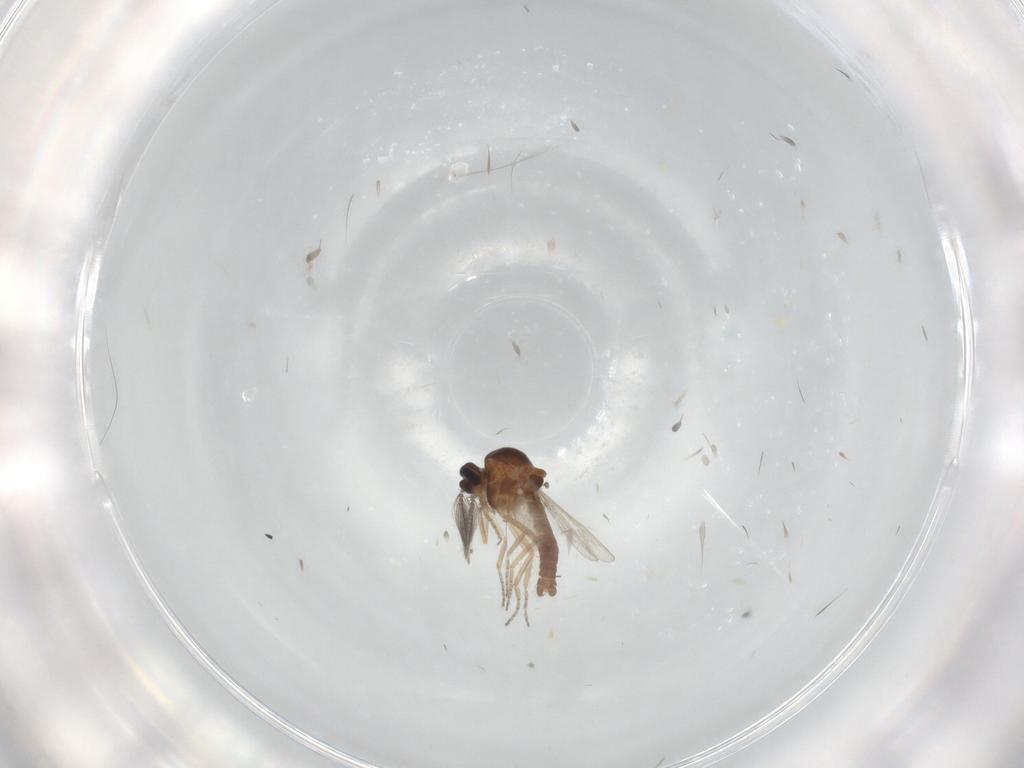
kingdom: Animalia
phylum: Arthropoda
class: Insecta
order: Diptera
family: Ceratopogonidae
